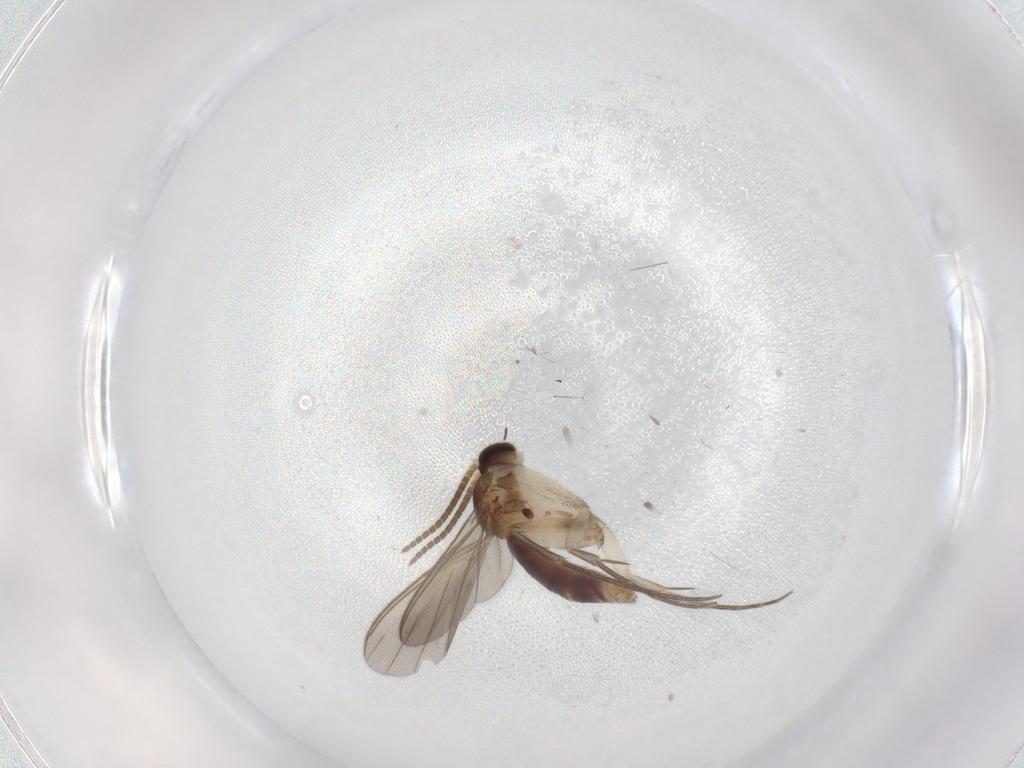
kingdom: Animalia
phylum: Arthropoda
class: Insecta
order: Diptera
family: Mycetophilidae
